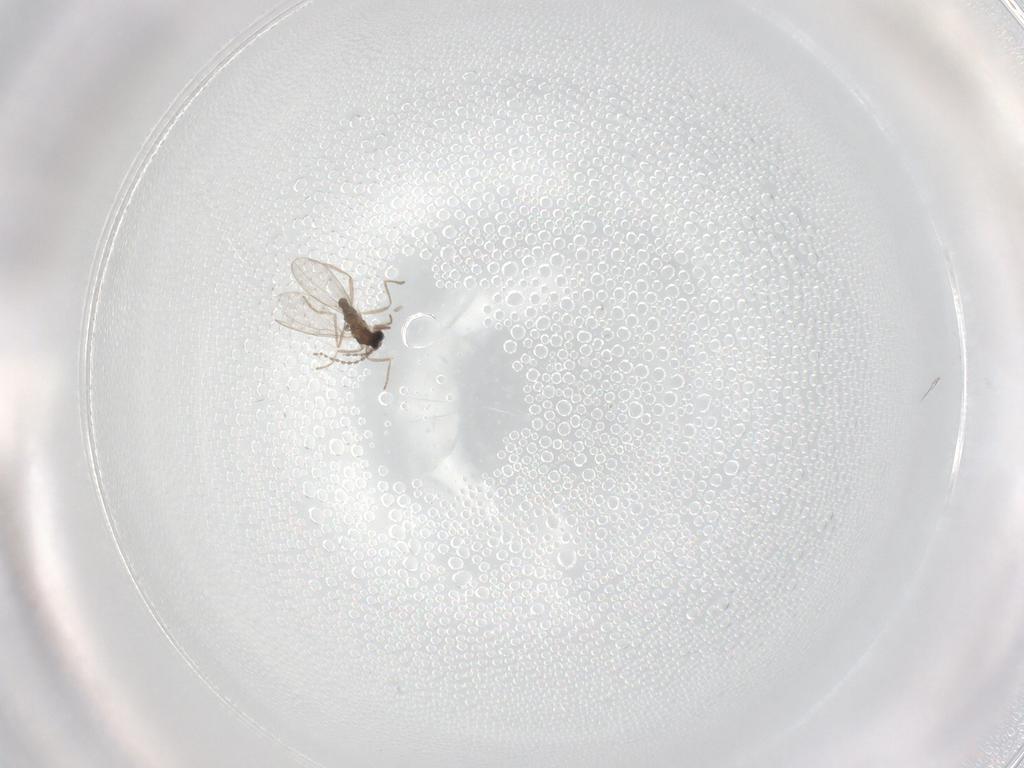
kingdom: Animalia
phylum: Arthropoda
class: Insecta
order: Diptera
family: Cecidomyiidae
